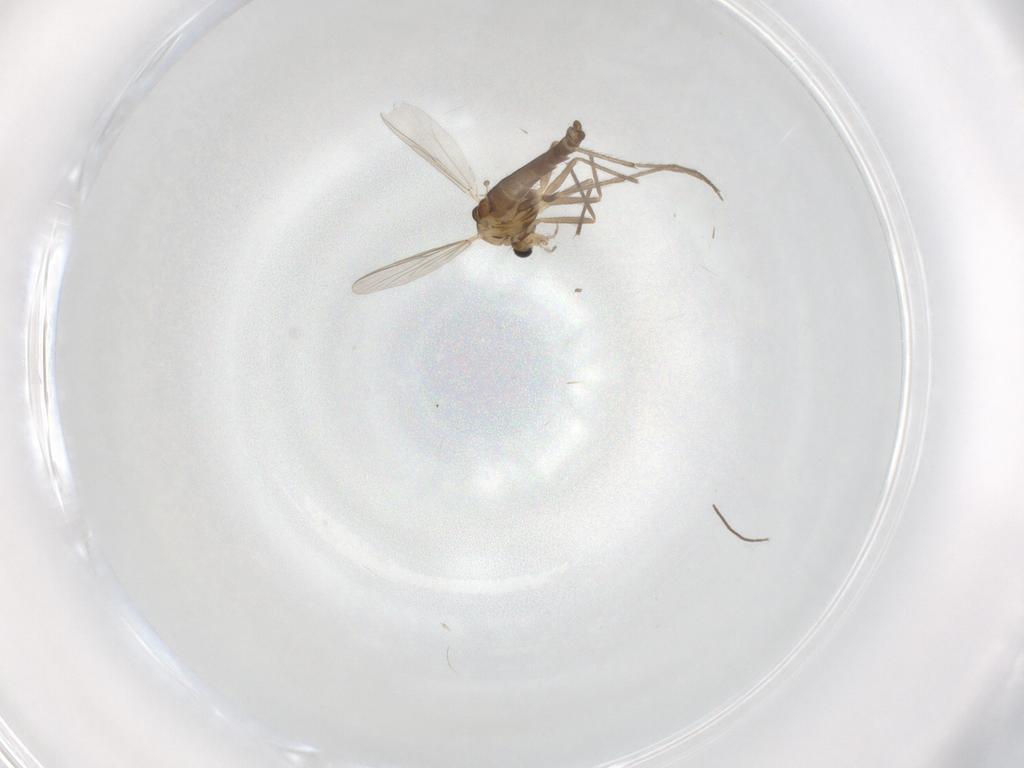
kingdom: Animalia
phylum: Arthropoda
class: Insecta
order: Diptera
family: Chironomidae
